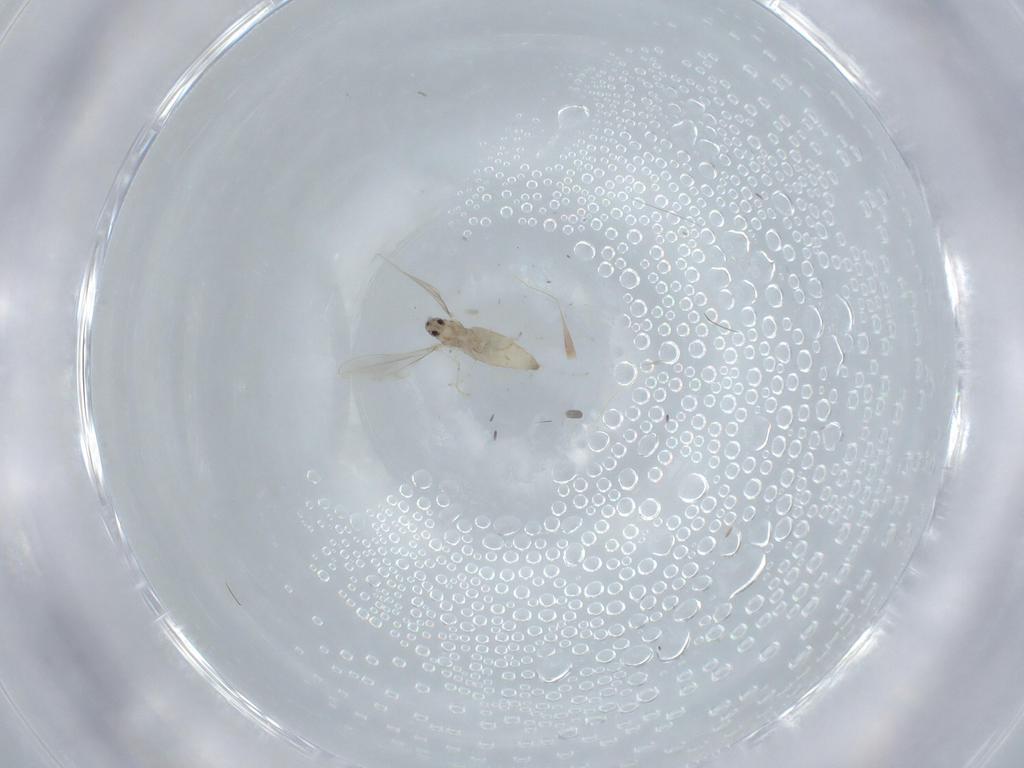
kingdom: Animalia
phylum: Arthropoda
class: Insecta
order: Diptera
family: Cecidomyiidae
